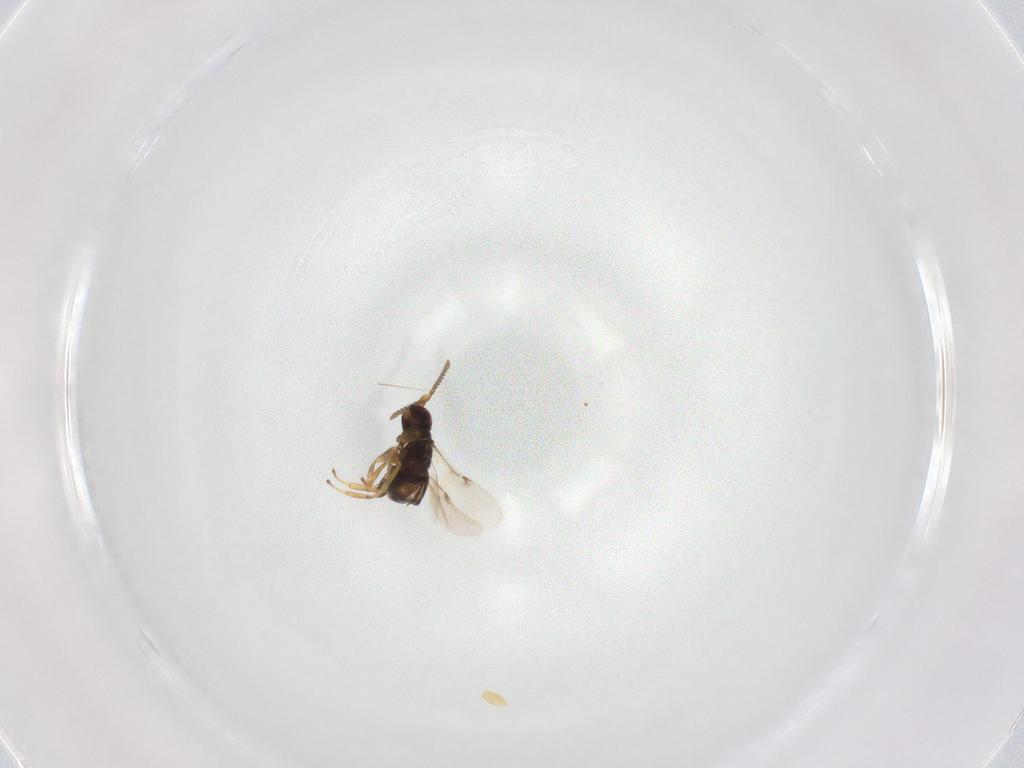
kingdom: Animalia
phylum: Arthropoda
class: Insecta
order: Hymenoptera
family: Formicidae
